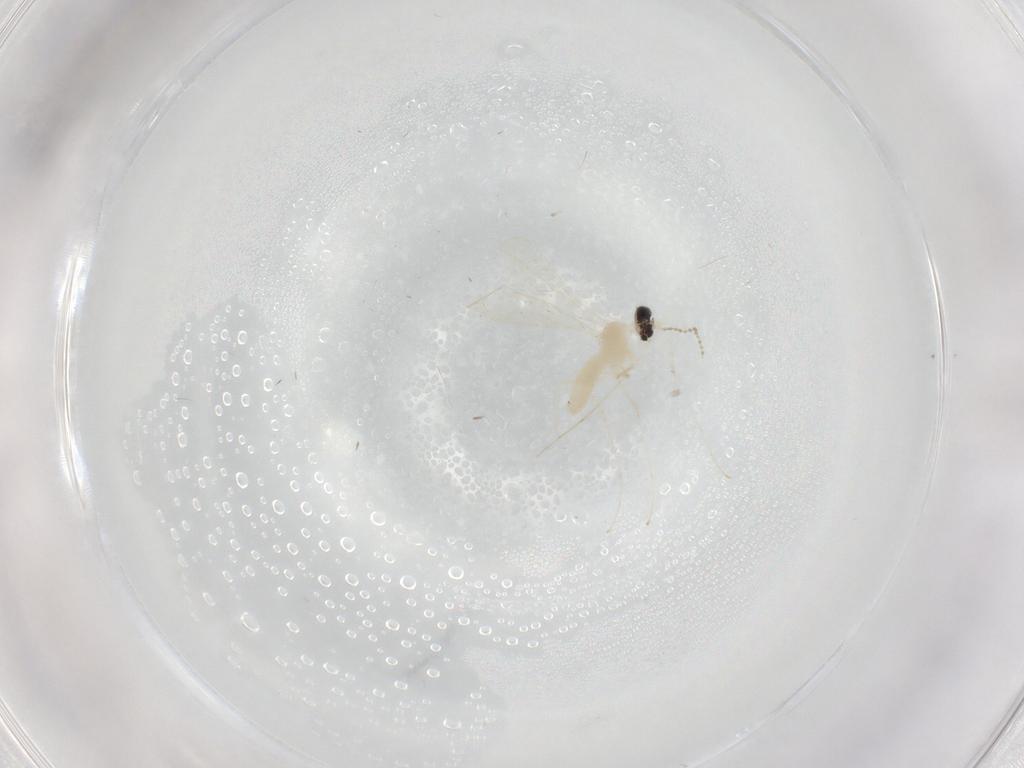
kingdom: Animalia
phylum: Arthropoda
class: Insecta
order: Diptera
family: Cecidomyiidae
